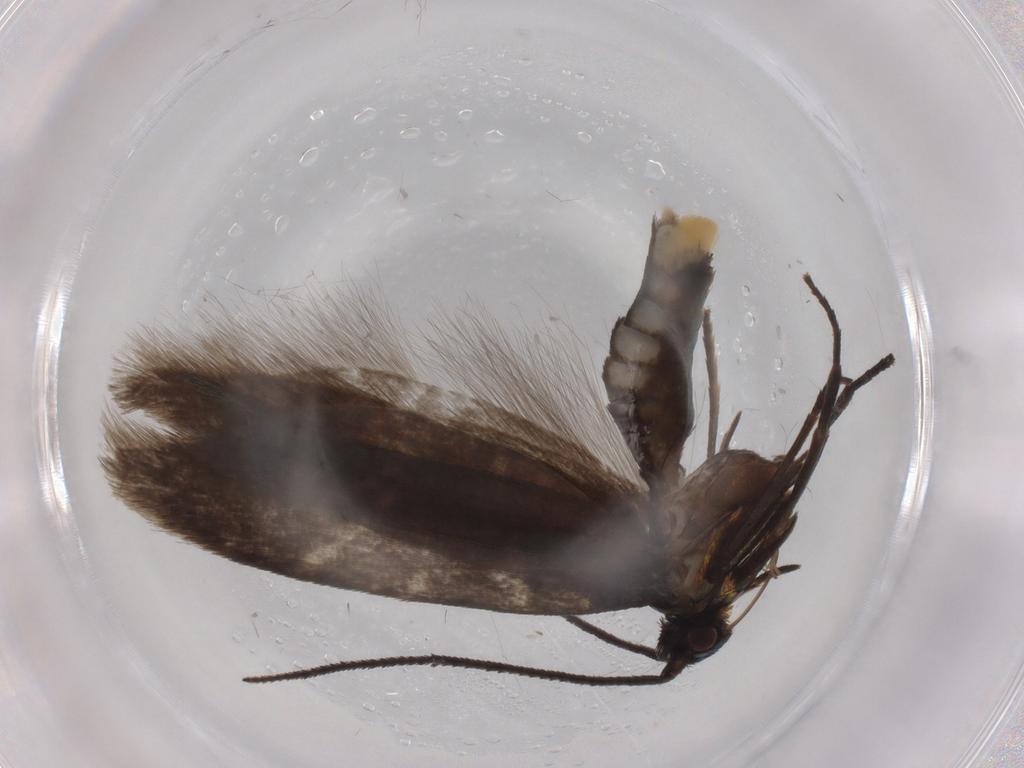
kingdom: Animalia
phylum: Arthropoda
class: Insecta
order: Lepidoptera
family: Argyresthiidae
